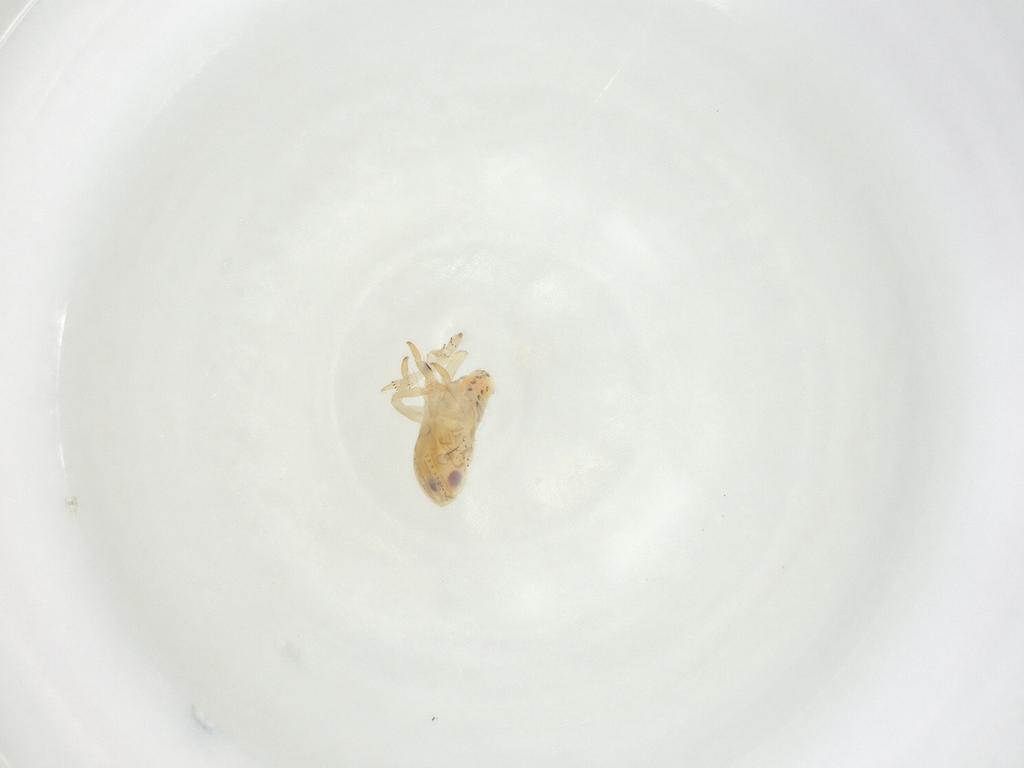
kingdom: Animalia
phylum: Arthropoda
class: Insecta
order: Hemiptera
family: Tropiduchidae
